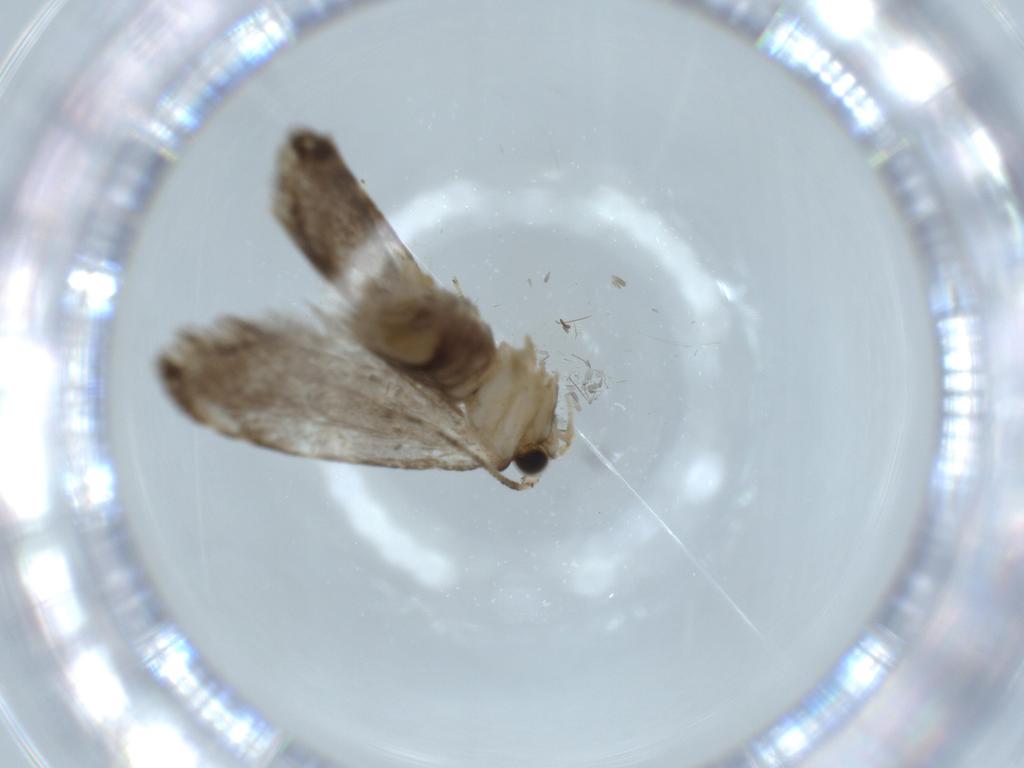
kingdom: Animalia
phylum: Arthropoda
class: Insecta
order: Lepidoptera
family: Tineidae
